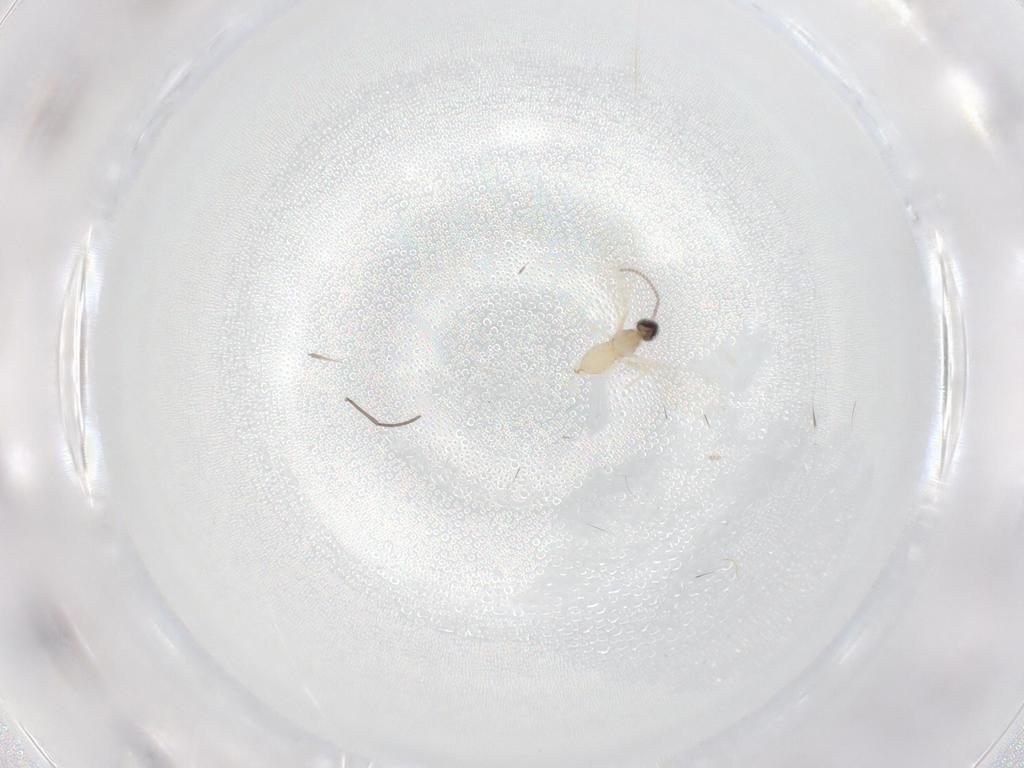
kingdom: Animalia
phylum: Arthropoda
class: Insecta
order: Diptera
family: Cecidomyiidae
